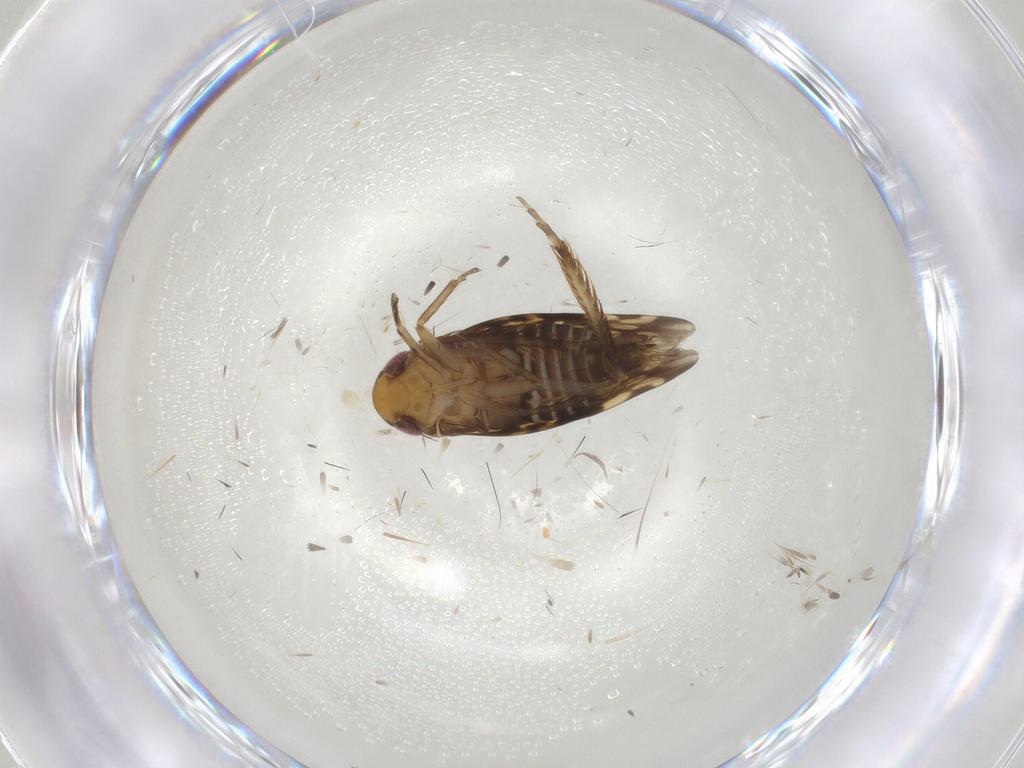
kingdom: Animalia
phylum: Arthropoda
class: Insecta
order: Hemiptera
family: Cicadellidae
